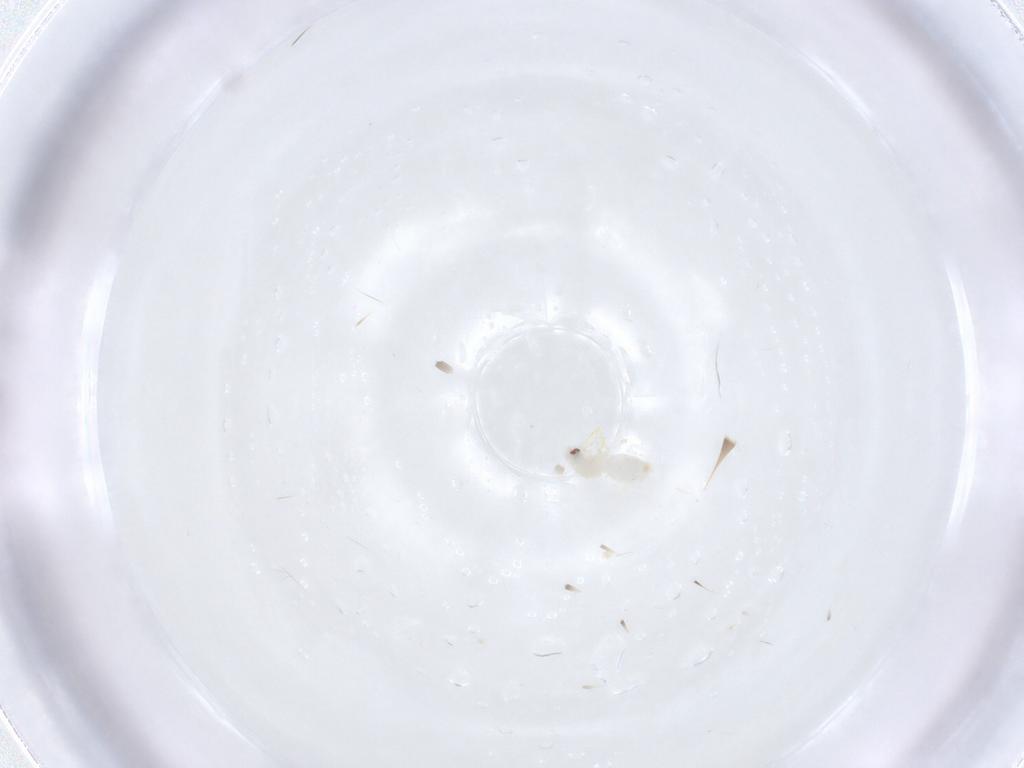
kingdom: Animalia
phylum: Arthropoda
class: Insecta
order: Hemiptera
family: Aleyrodidae
